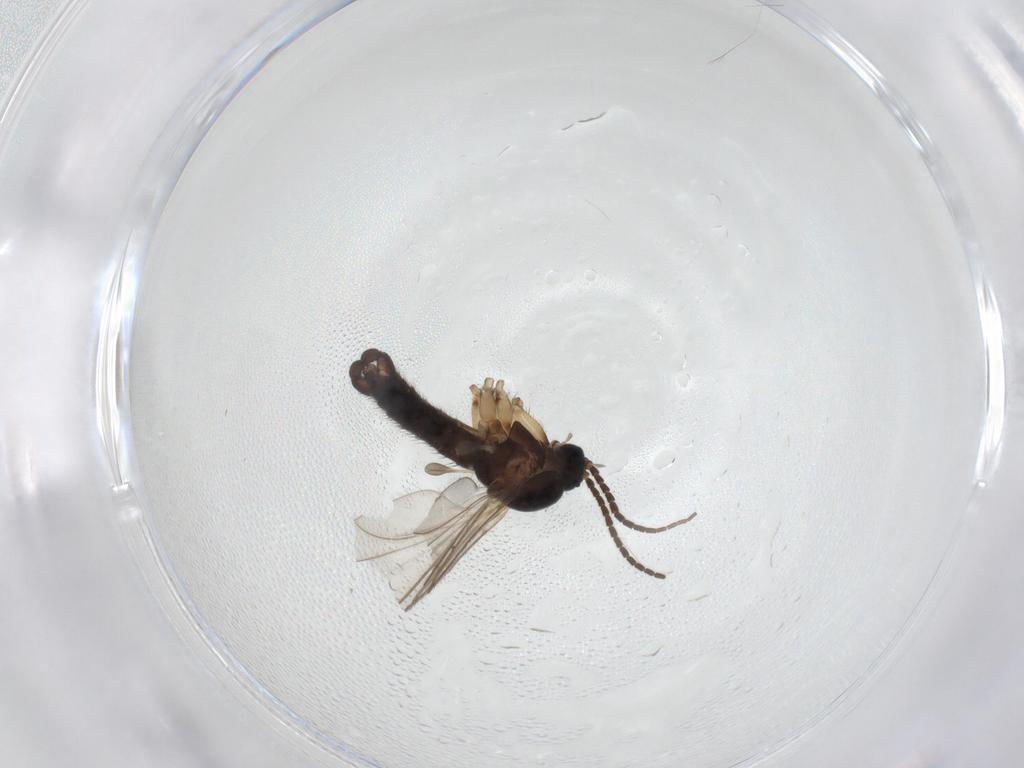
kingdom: Animalia
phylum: Arthropoda
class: Insecta
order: Diptera
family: Sciaridae
